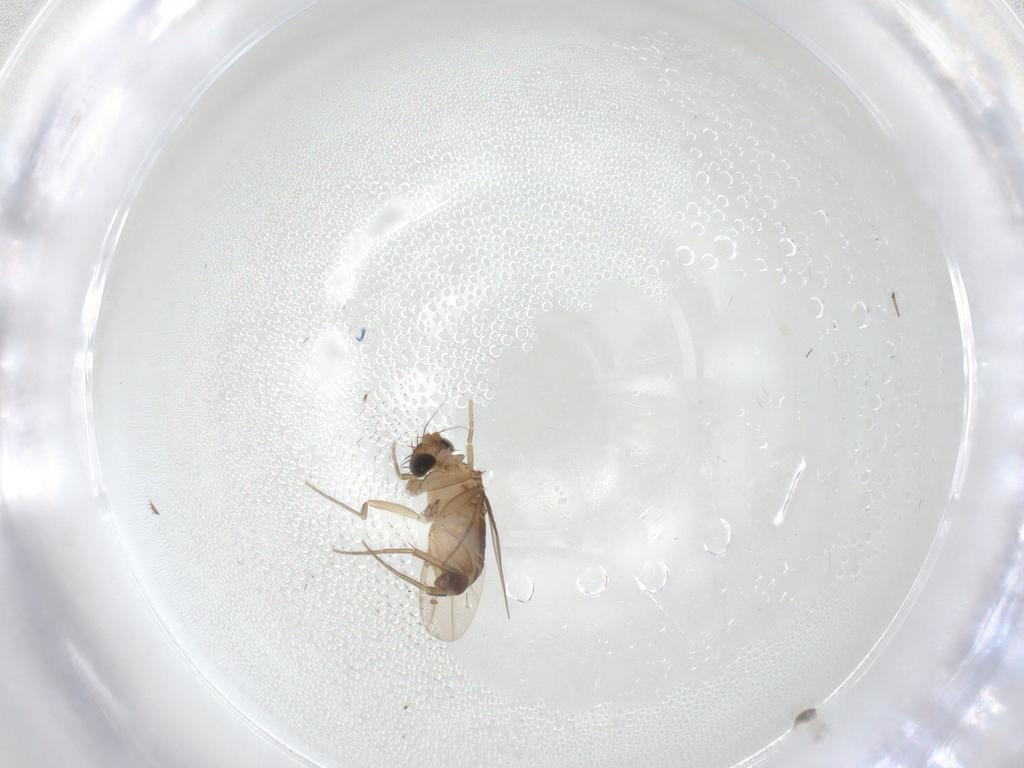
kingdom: Animalia
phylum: Arthropoda
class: Insecta
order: Diptera
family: Phoridae
